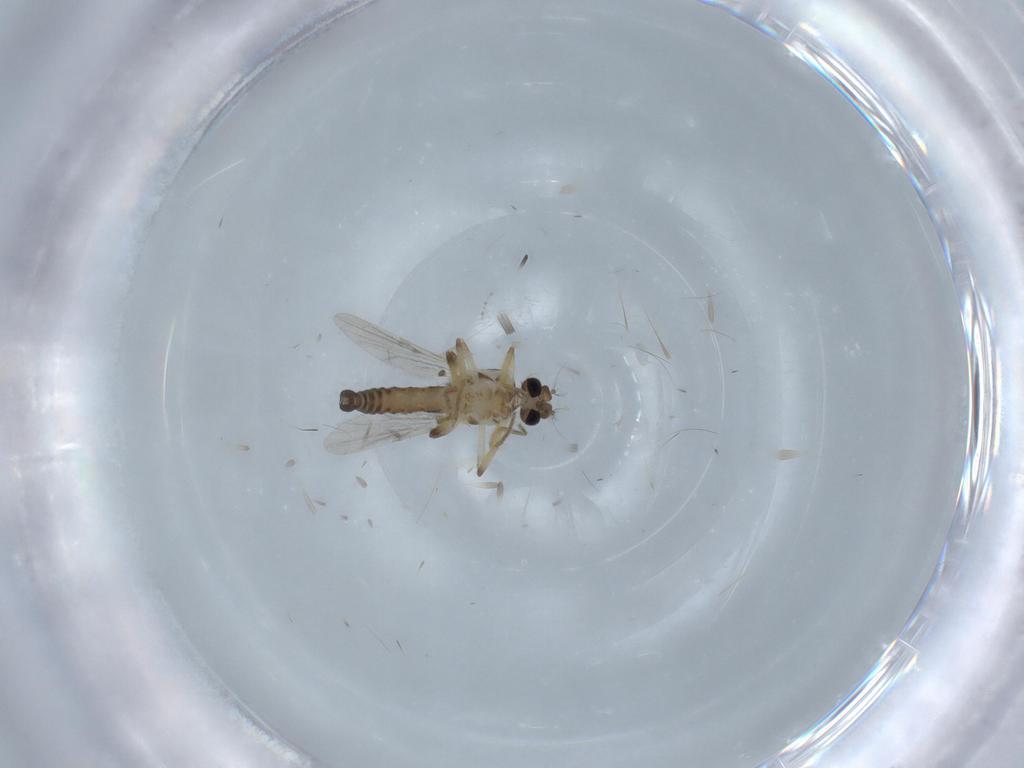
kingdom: Animalia
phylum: Arthropoda
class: Insecta
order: Diptera
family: Ceratopogonidae
